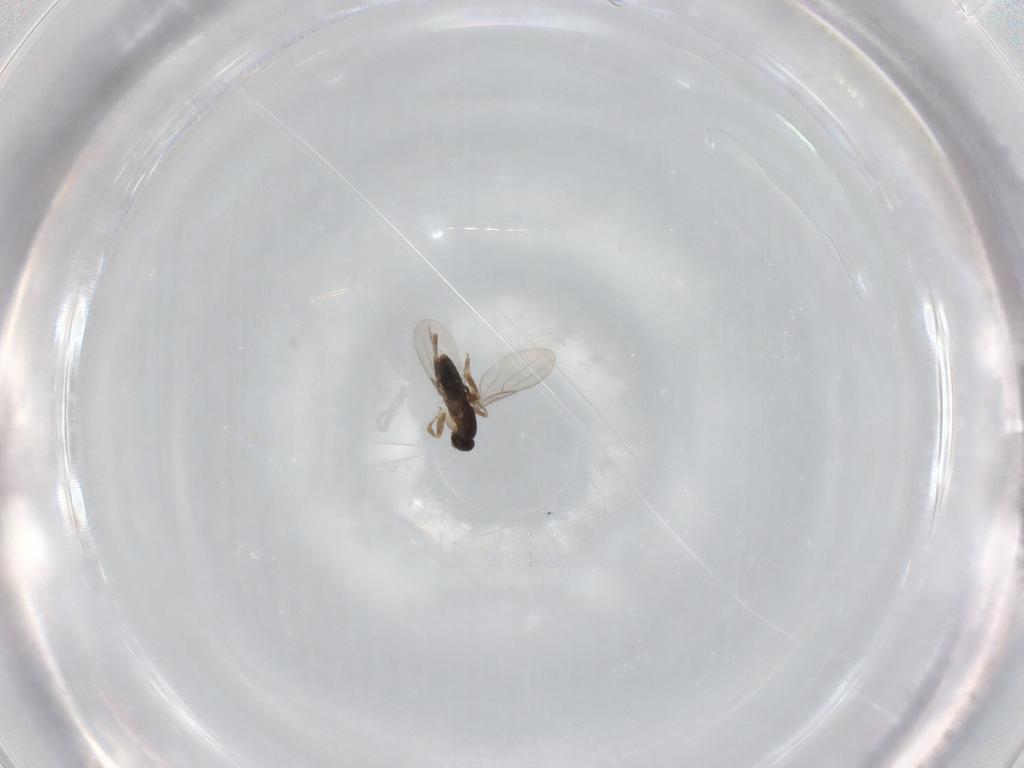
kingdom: Animalia
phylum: Arthropoda
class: Insecta
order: Diptera
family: Phoridae
